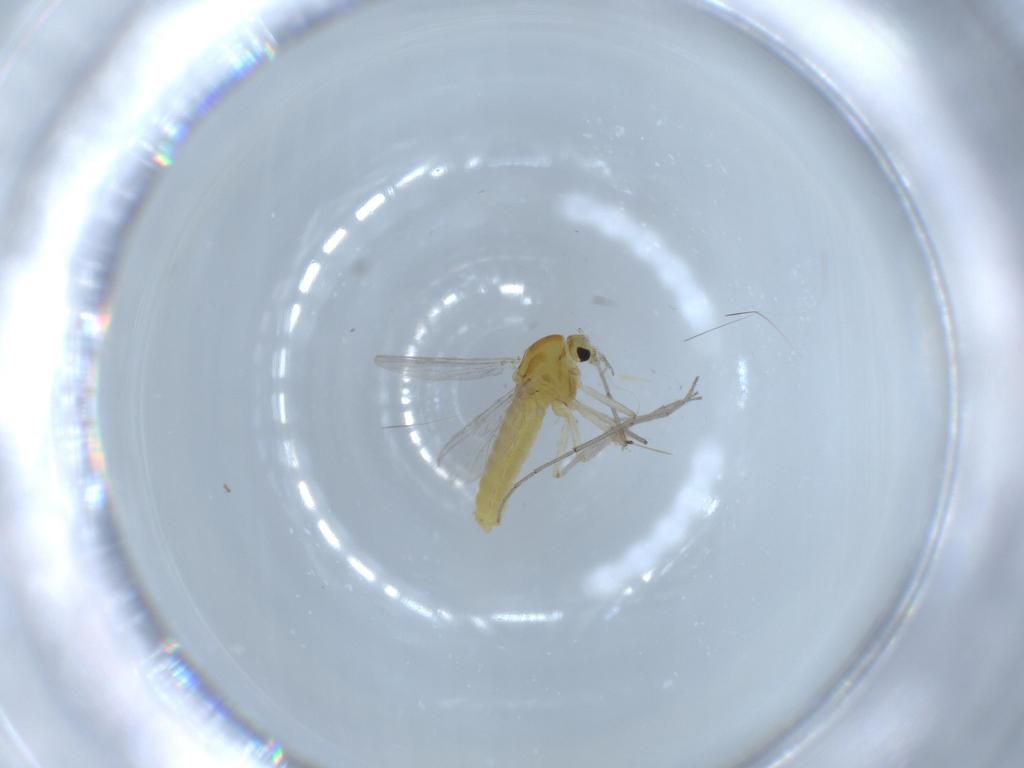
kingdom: Animalia
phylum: Arthropoda
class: Insecta
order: Diptera
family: Chironomidae
